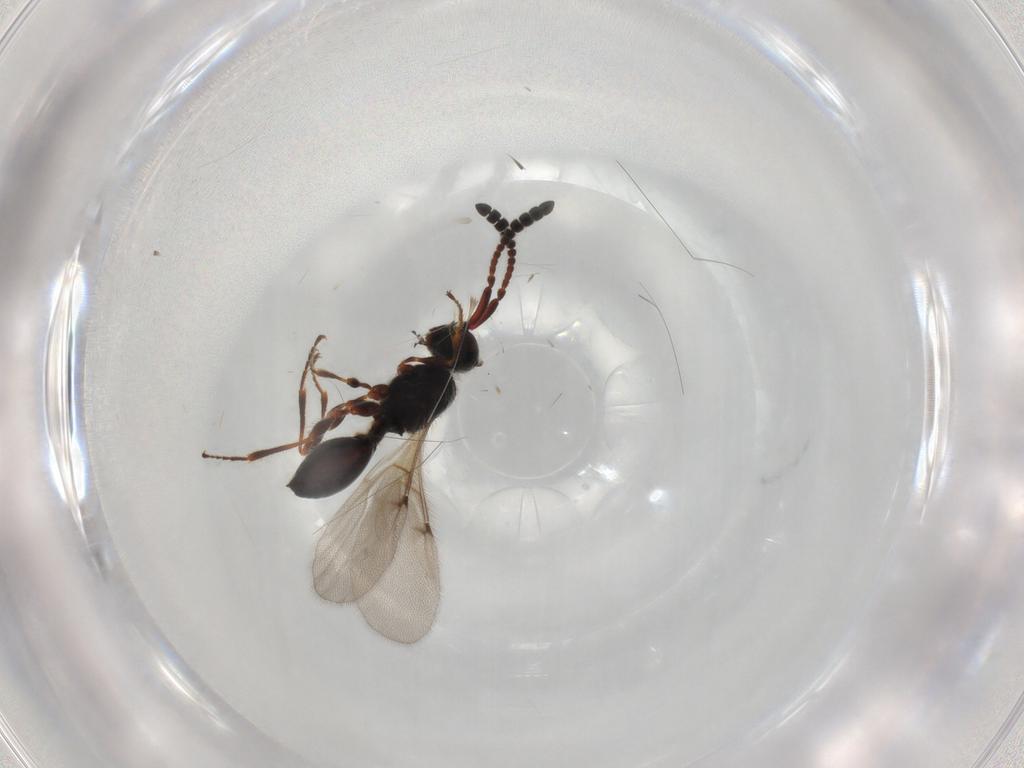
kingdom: Animalia
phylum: Arthropoda
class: Insecta
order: Hymenoptera
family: Diapriidae
